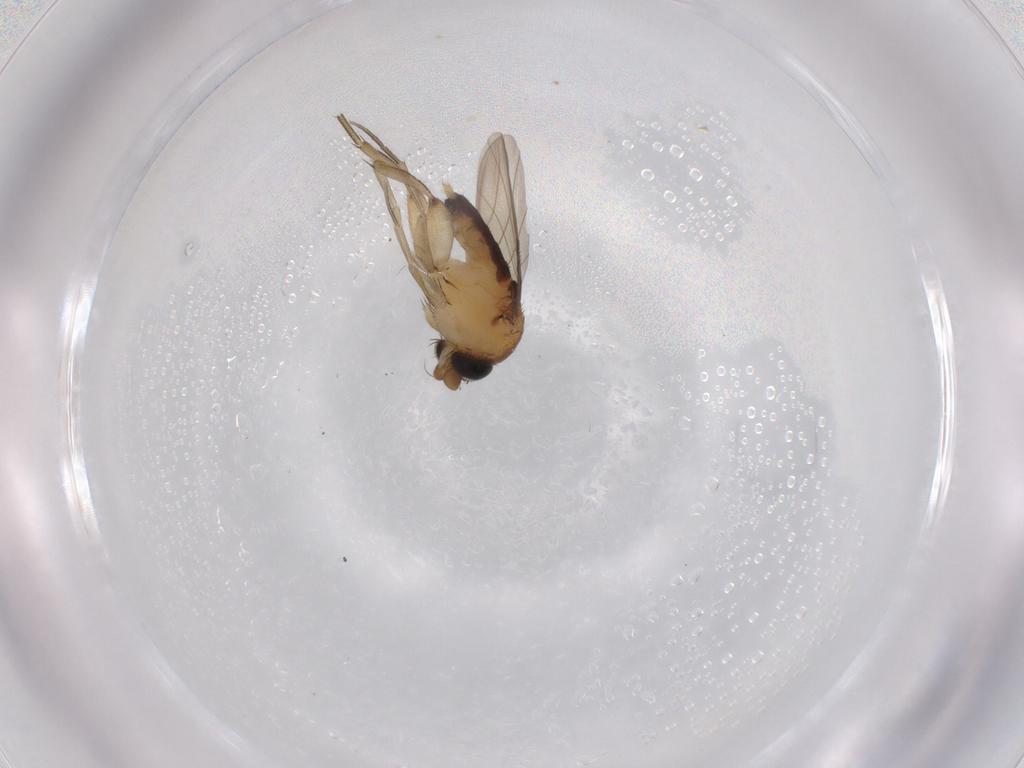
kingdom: Animalia
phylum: Arthropoda
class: Insecta
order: Diptera
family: Phoridae
